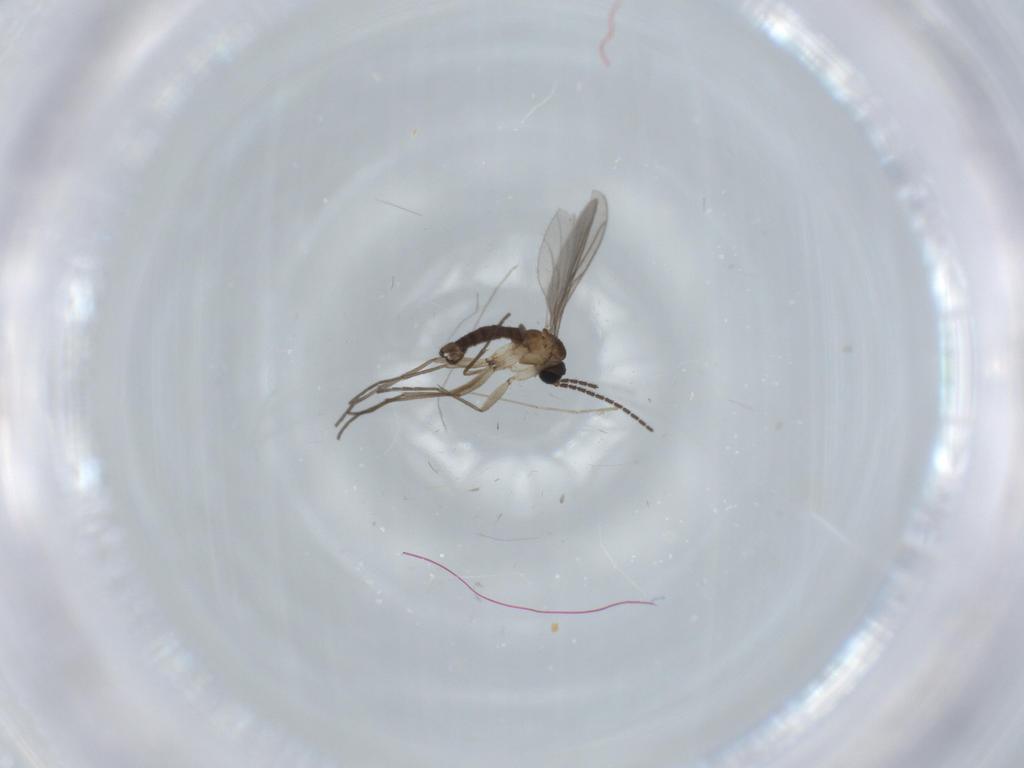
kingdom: Animalia
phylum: Arthropoda
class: Insecta
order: Diptera
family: Sciaridae
